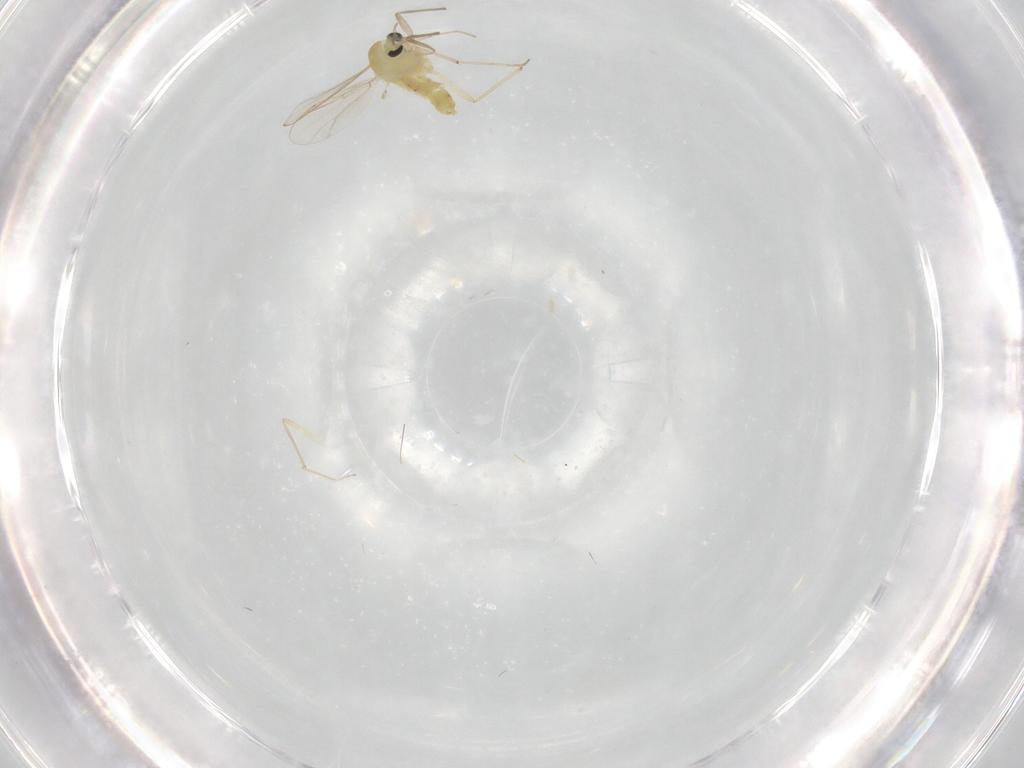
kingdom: Animalia
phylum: Arthropoda
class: Insecta
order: Diptera
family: Chironomidae
